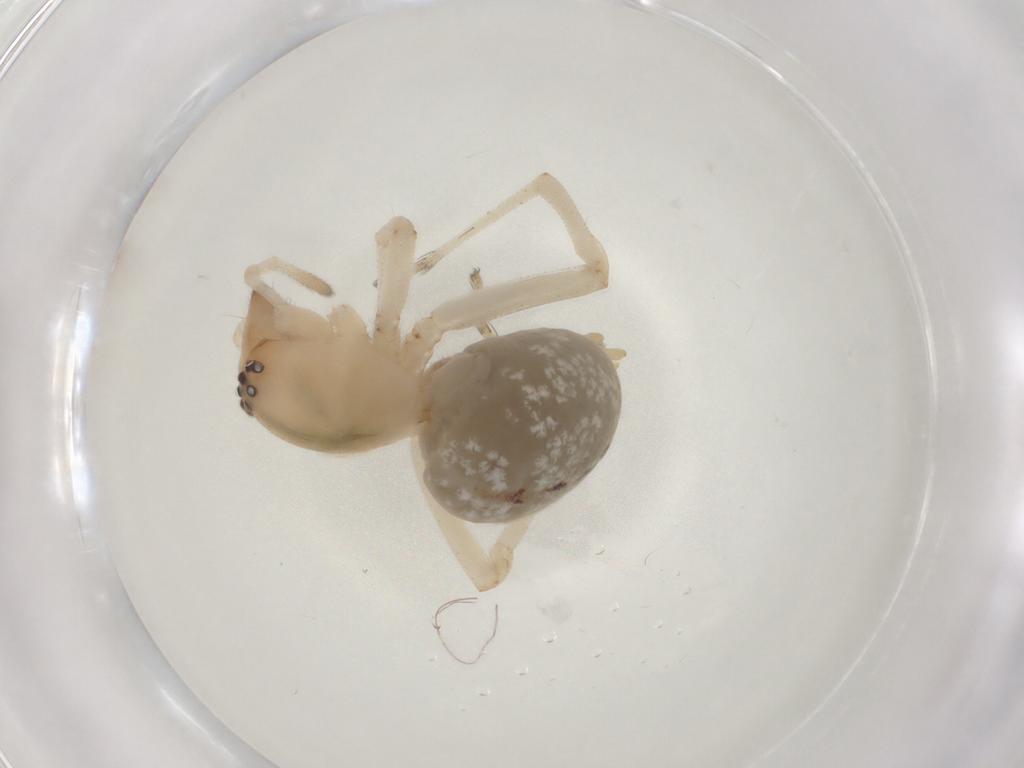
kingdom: Animalia
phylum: Arthropoda
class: Arachnida
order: Araneae
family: Cheiracanthiidae
